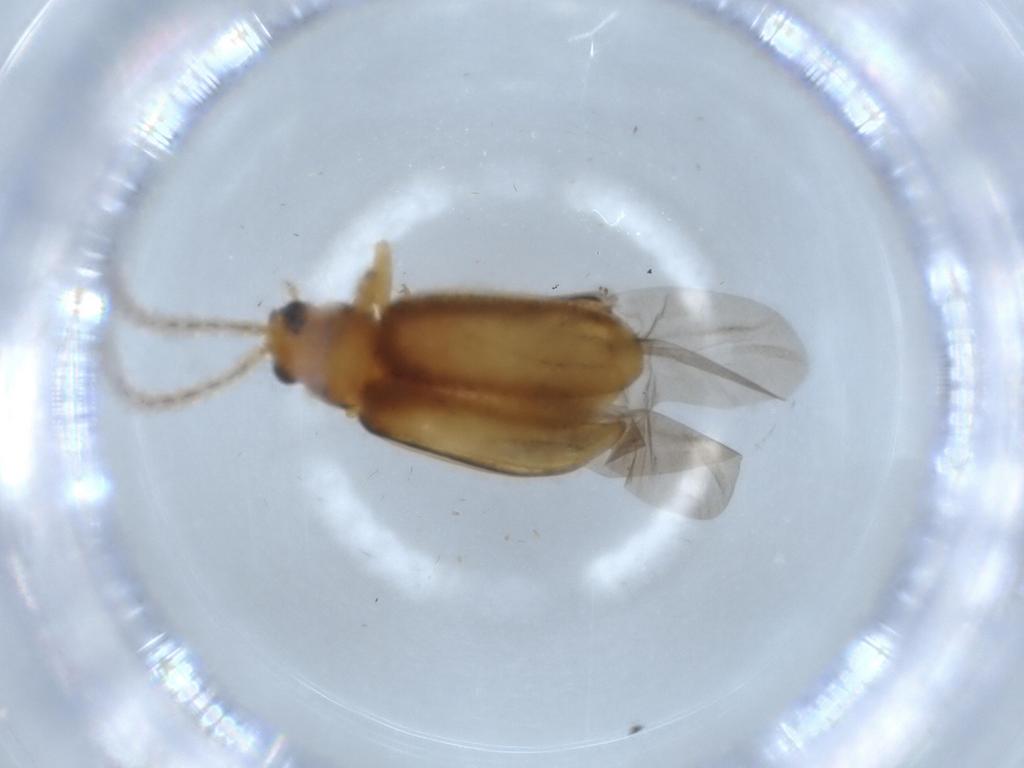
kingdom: Animalia
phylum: Arthropoda
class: Insecta
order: Coleoptera
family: Chrysomelidae
